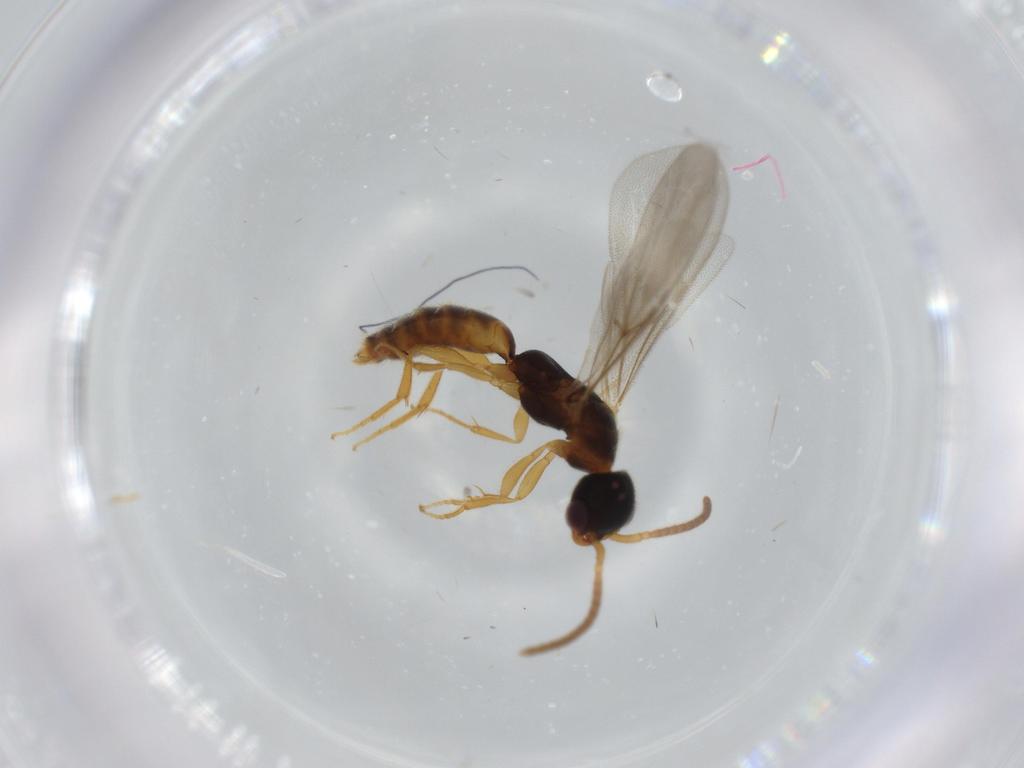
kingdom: Animalia
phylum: Arthropoda
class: Insecta
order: Hymenoptera
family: Bethylidae
